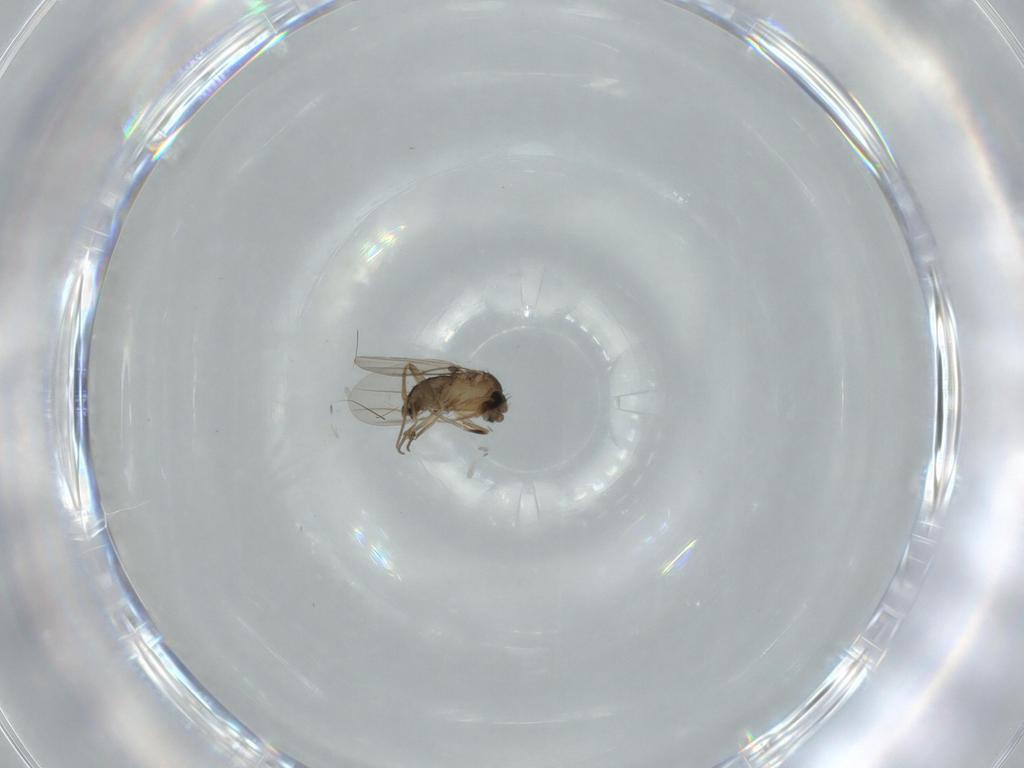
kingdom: Animalia
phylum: Arthropoda
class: Insecta
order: Diptera
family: Phoridae
